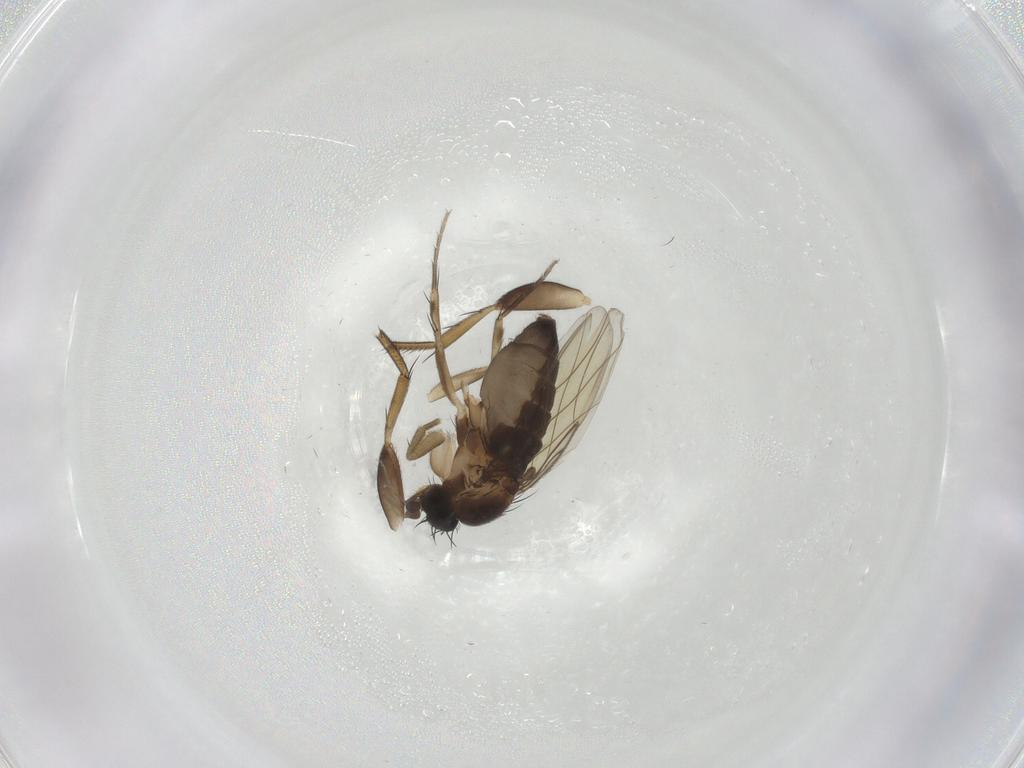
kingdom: Animalia
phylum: Arthropoda
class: Insecta
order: Diptera
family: Phoridae
